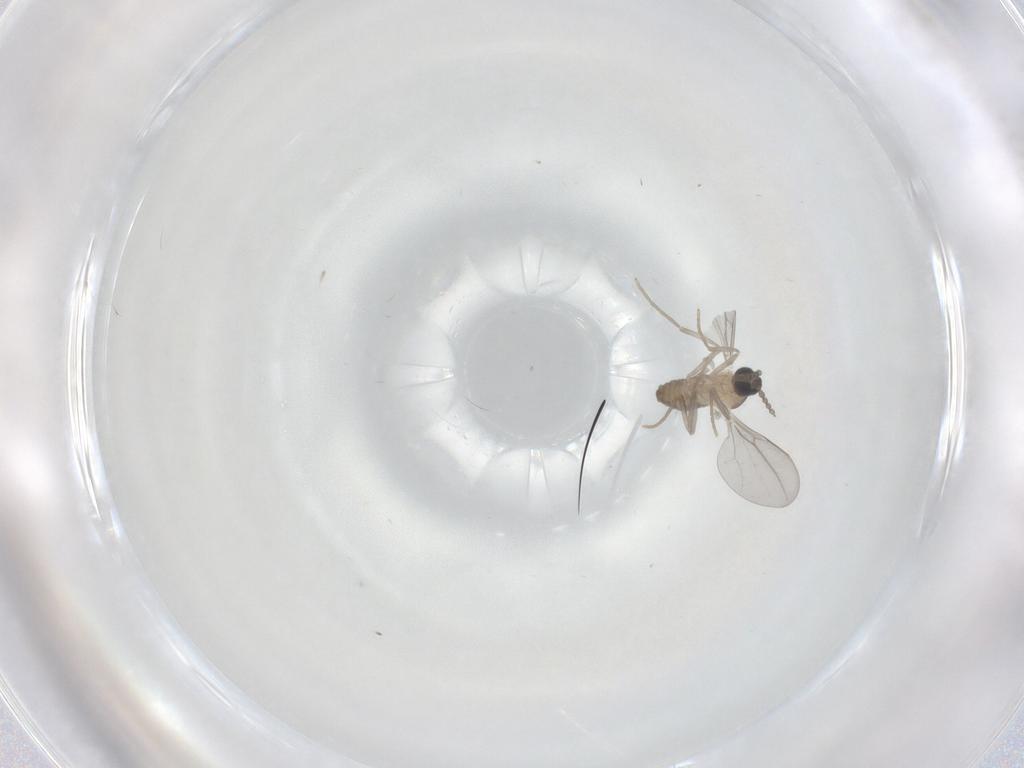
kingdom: Animalia
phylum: Arthropoda
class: Insecta
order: Diptera
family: Cecidomyiidae
